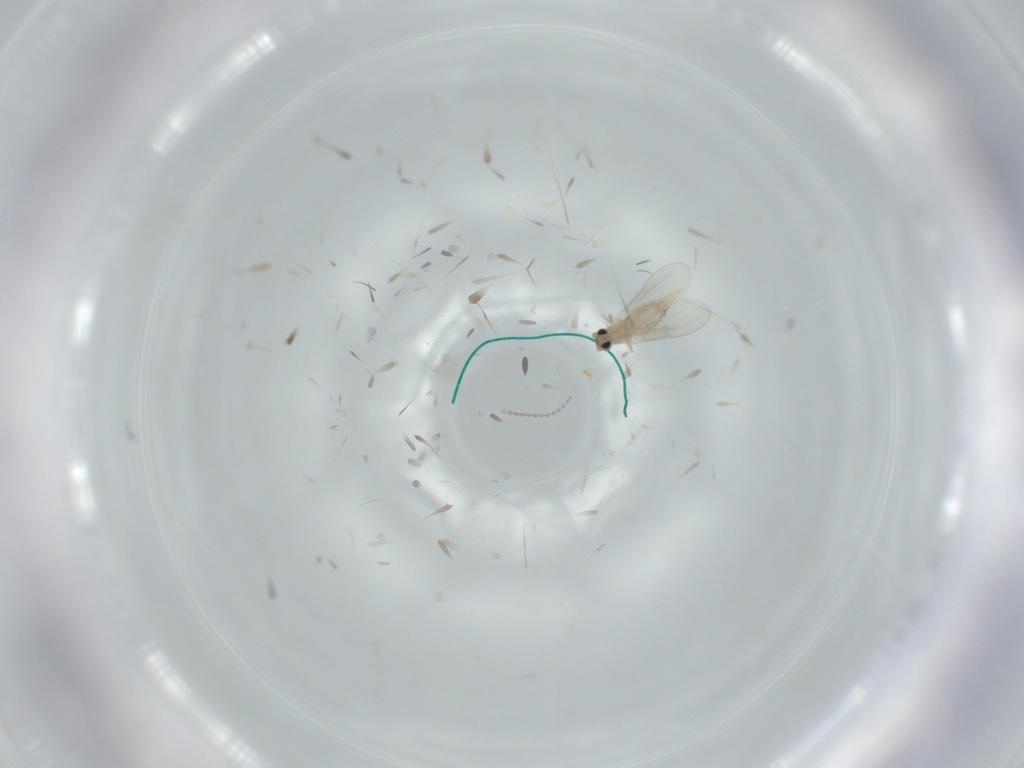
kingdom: Animalia
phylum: Arthropoda
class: Insecta
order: Diptera
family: Cecidomyiidae
